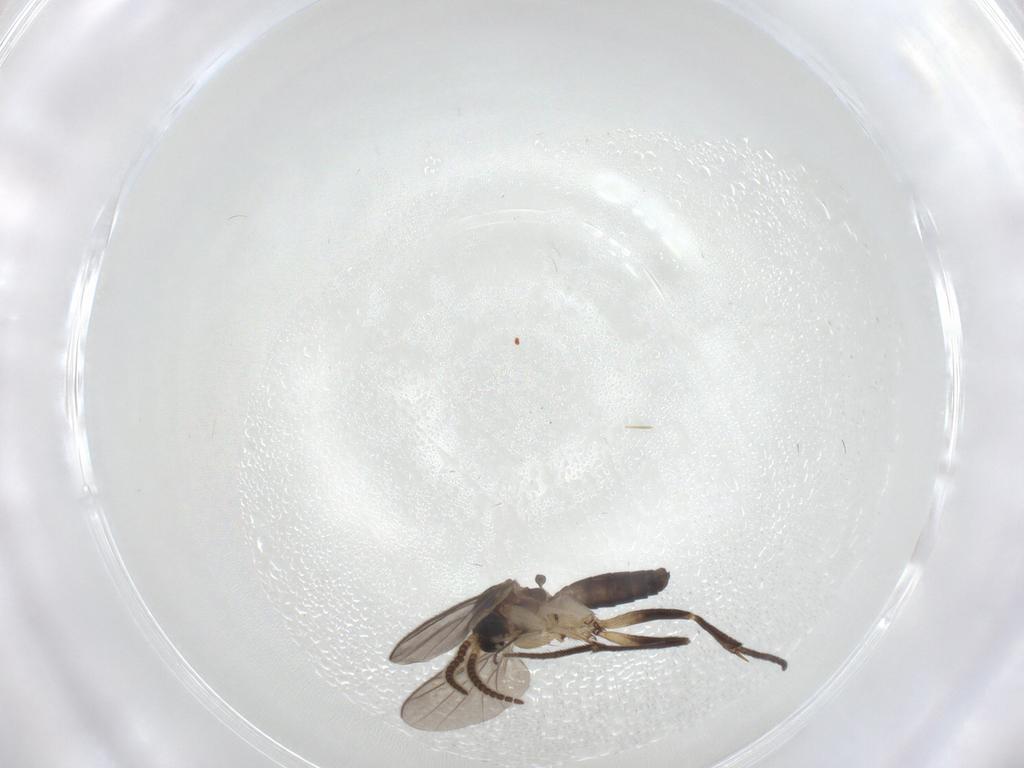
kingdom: Animalia
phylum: Arthropoda
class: Insecta
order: Diptera
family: Limoniidae
